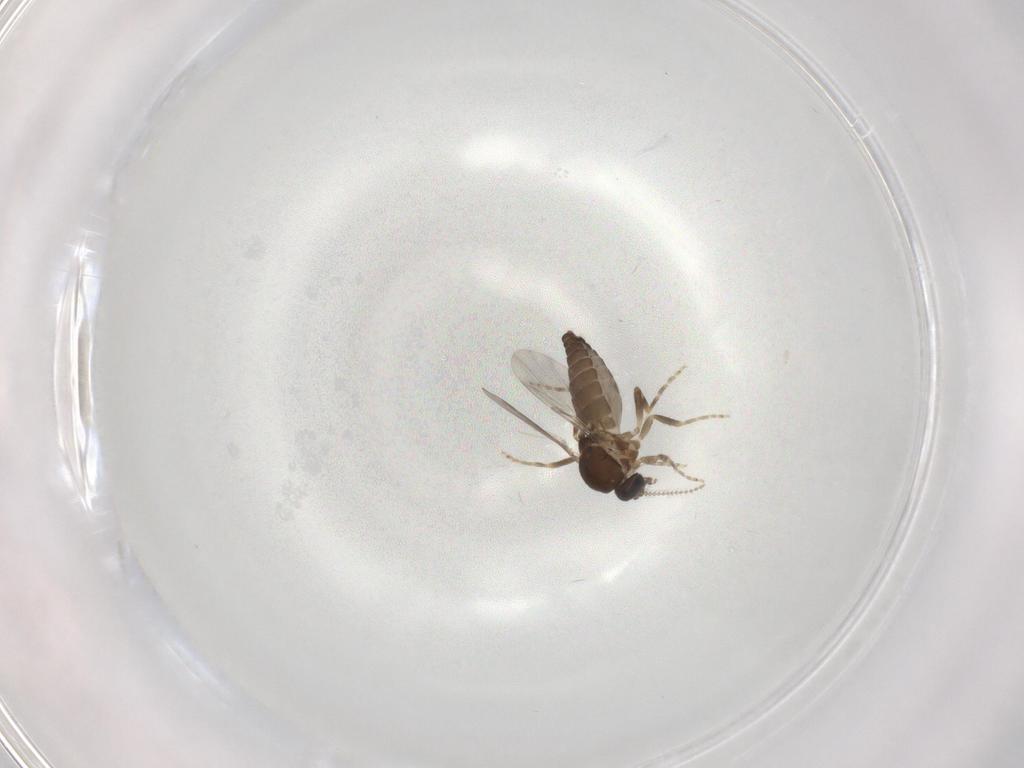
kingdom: Animalia
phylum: Arthropoda
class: Insecta
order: Diptera
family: Ceratopogonidae
